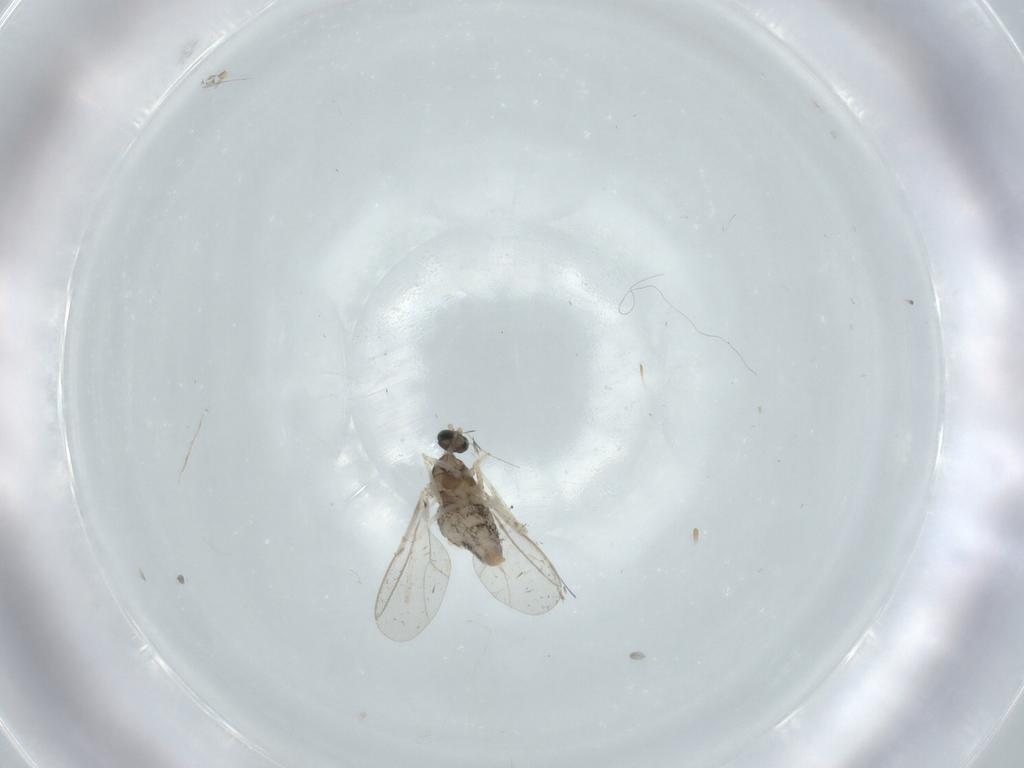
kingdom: Animalia
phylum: Arthropoda
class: Insecta
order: Diptera
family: Cecidomyiidae
